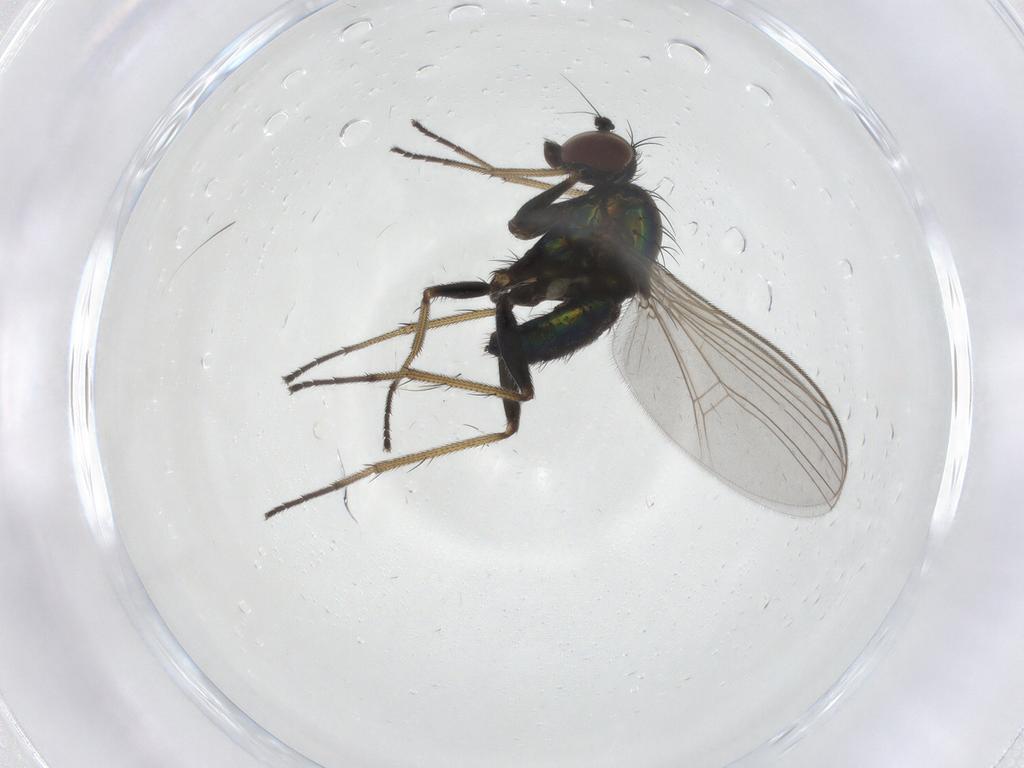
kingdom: Animalia
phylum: Arthropoda
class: Insecta
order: Diptera
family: Dolichopodidae
